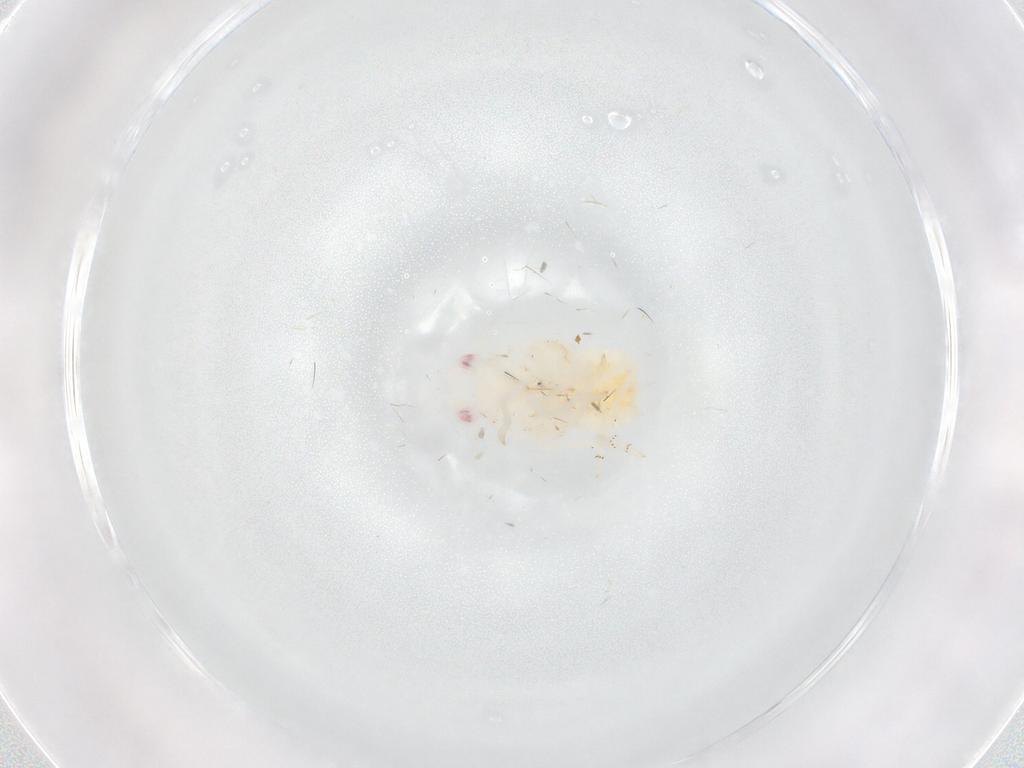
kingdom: Animalia
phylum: Arthropoda
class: Insecta
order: Hemiptera
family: Flatidae
